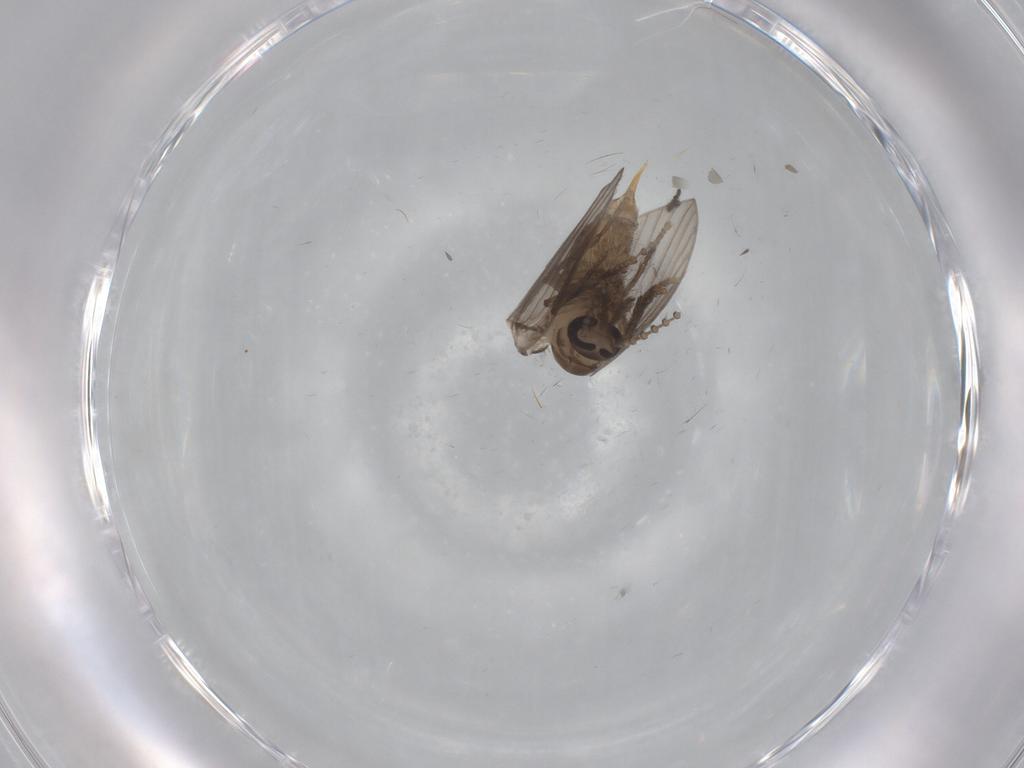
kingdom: Animalia
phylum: Arthropoda
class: Insecta
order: Diptera
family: Psychodidae
